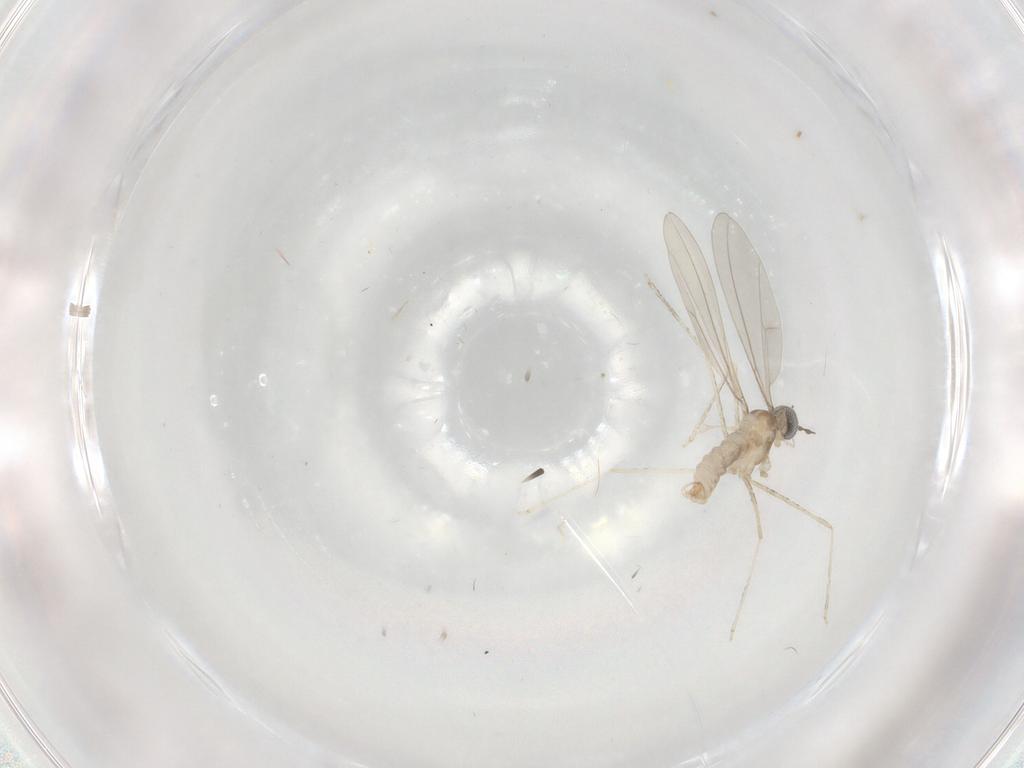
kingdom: Animalia
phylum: Arthropoda
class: Insecta
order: Diptera
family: Cecidomyiidae
